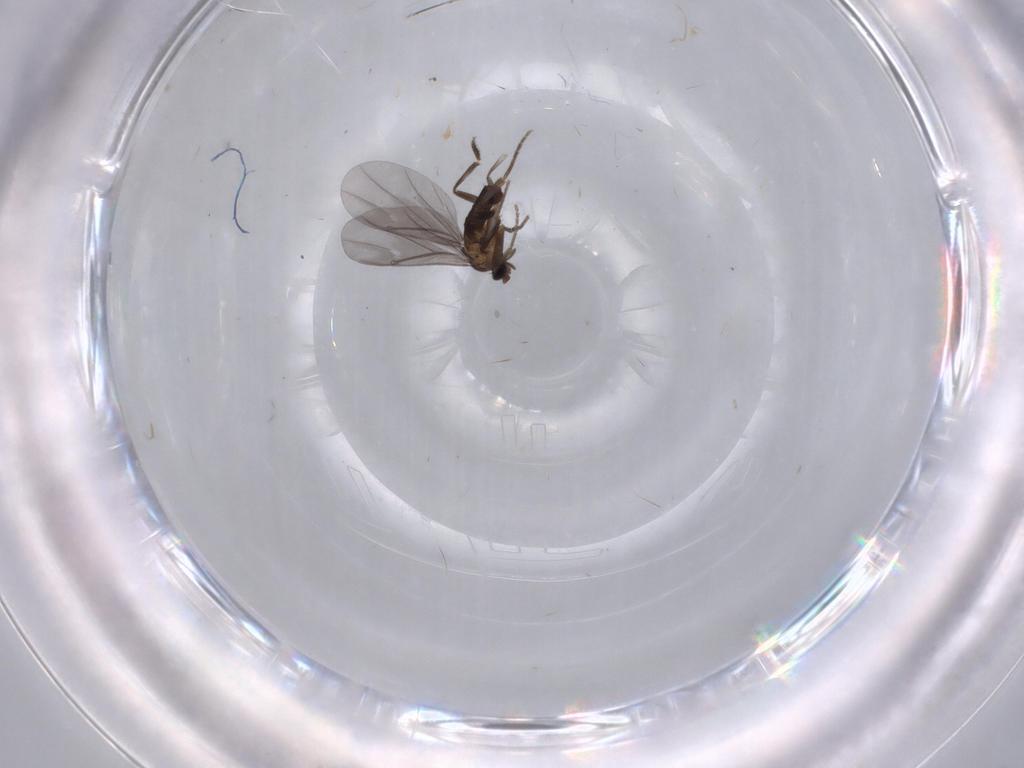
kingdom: Animalia
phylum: Arthropoda
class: Insecta
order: Diptera
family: Phoridae
